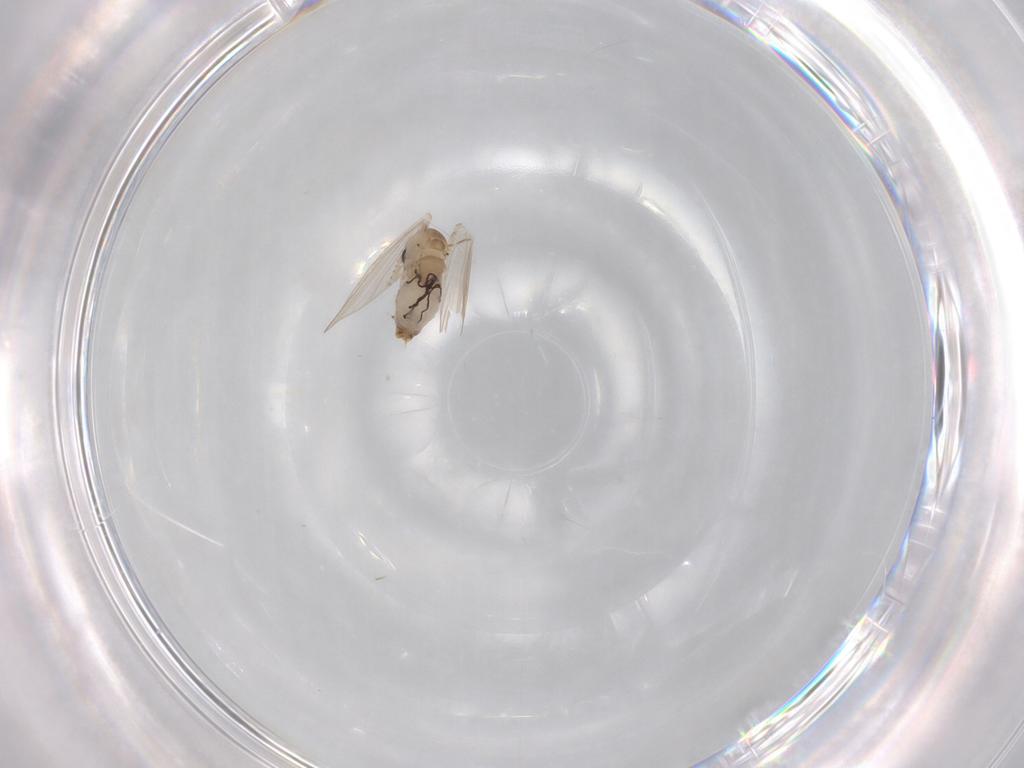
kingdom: Animalia
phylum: Arthropoda
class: Insecta
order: Diptera
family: Psychodidae
